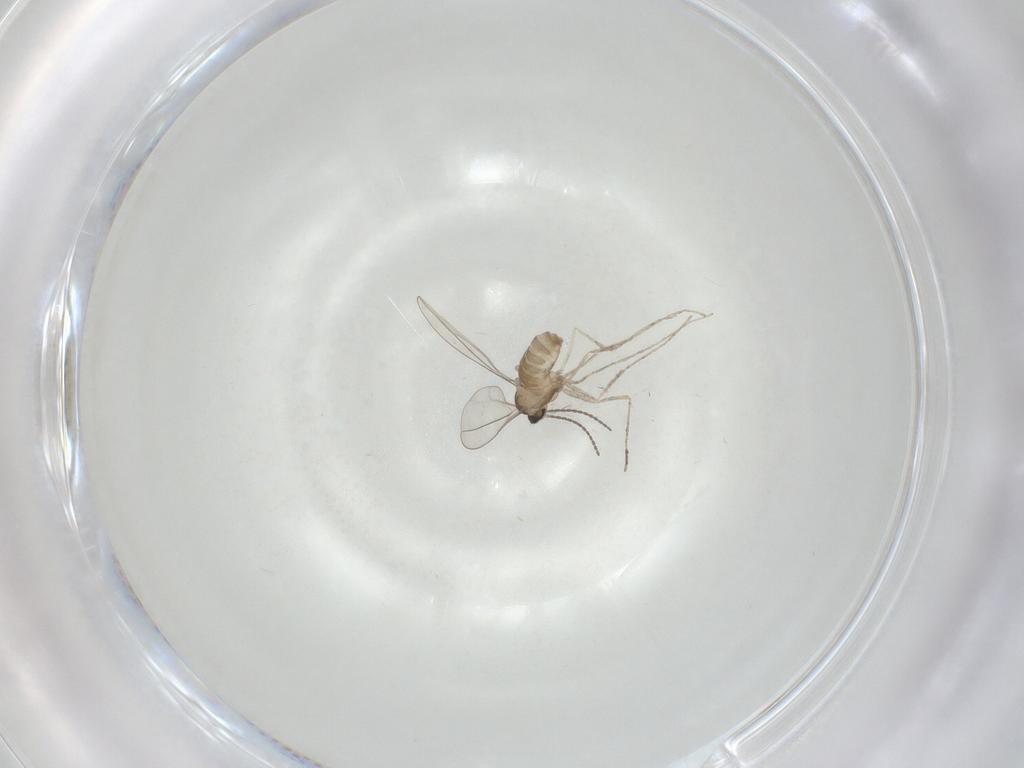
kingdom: Animalia
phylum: Arthropoda
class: Insecta
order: Diptera
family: Cecidomyiidae
